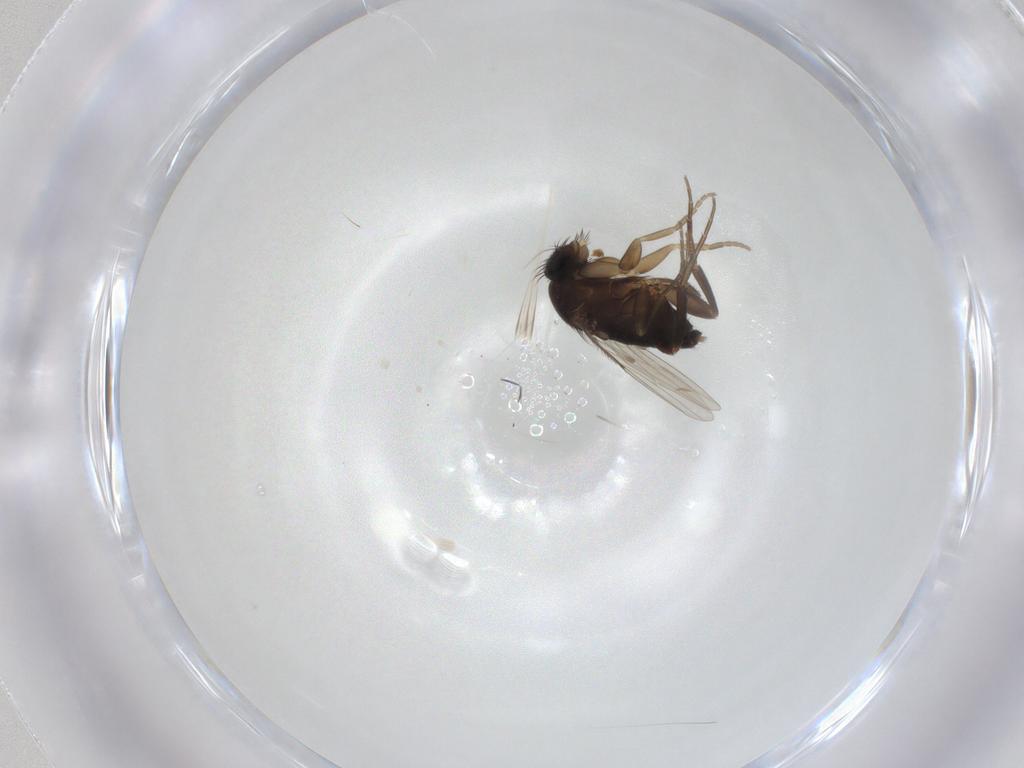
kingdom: Animalia
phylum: Arthropoda
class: Insecta
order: Diptera
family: Phoridae
